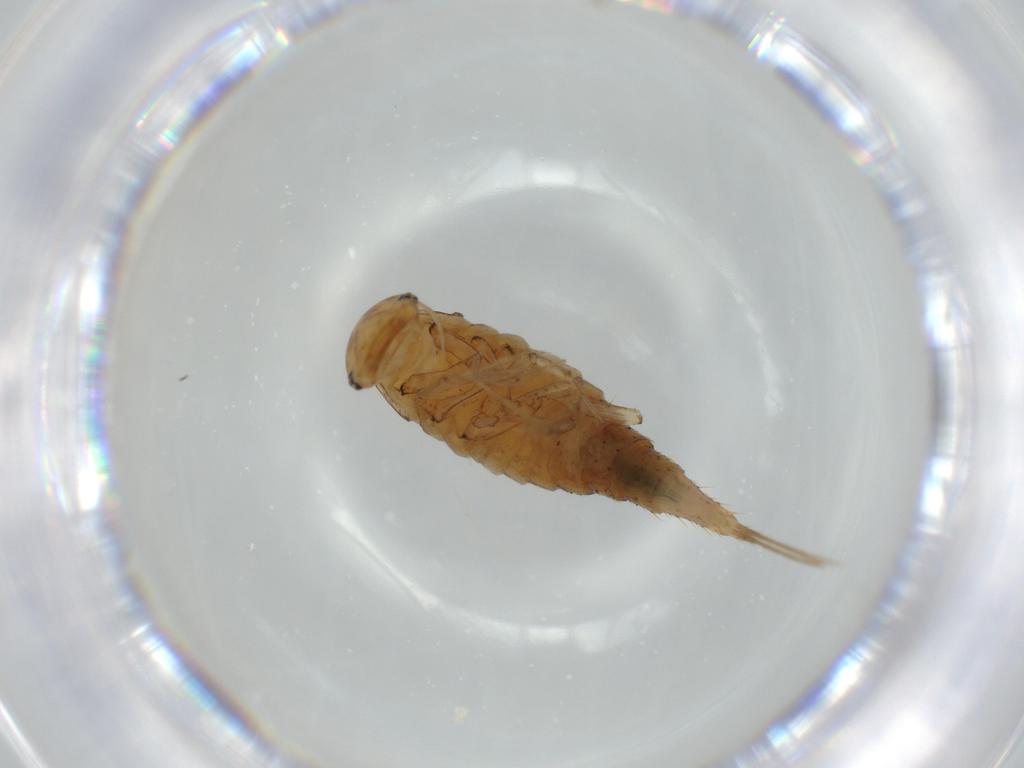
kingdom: Animalia
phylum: Arthropoda
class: Insecta
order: Coleoptera
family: Dytiscidae
